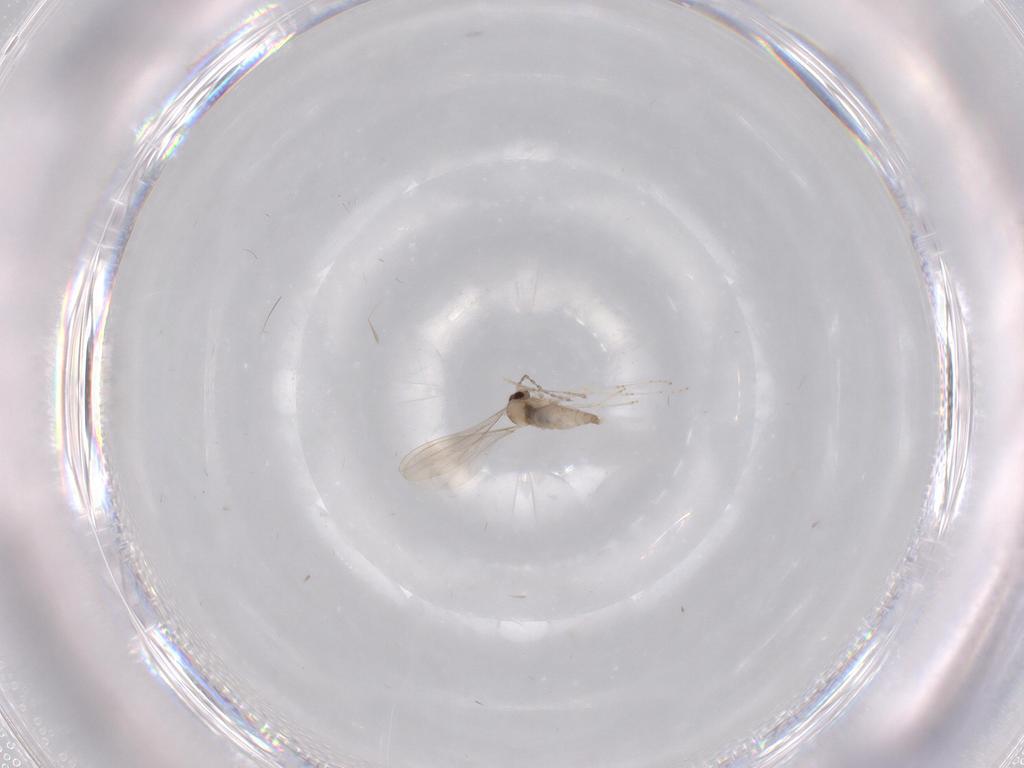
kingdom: Animalia
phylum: Arthropoda
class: Insecta
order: Diptera
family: Cecidomyiidae
